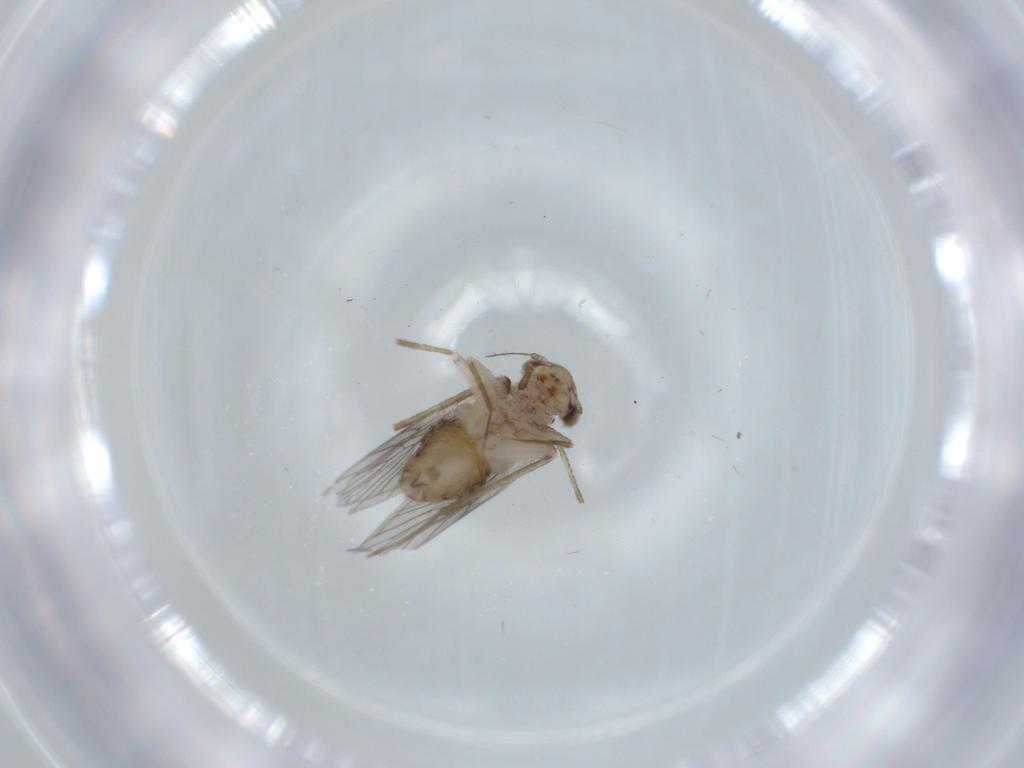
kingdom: Animalia
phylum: Arthropoda
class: Insecta
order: Psocodea
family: Lepidopsocidae
